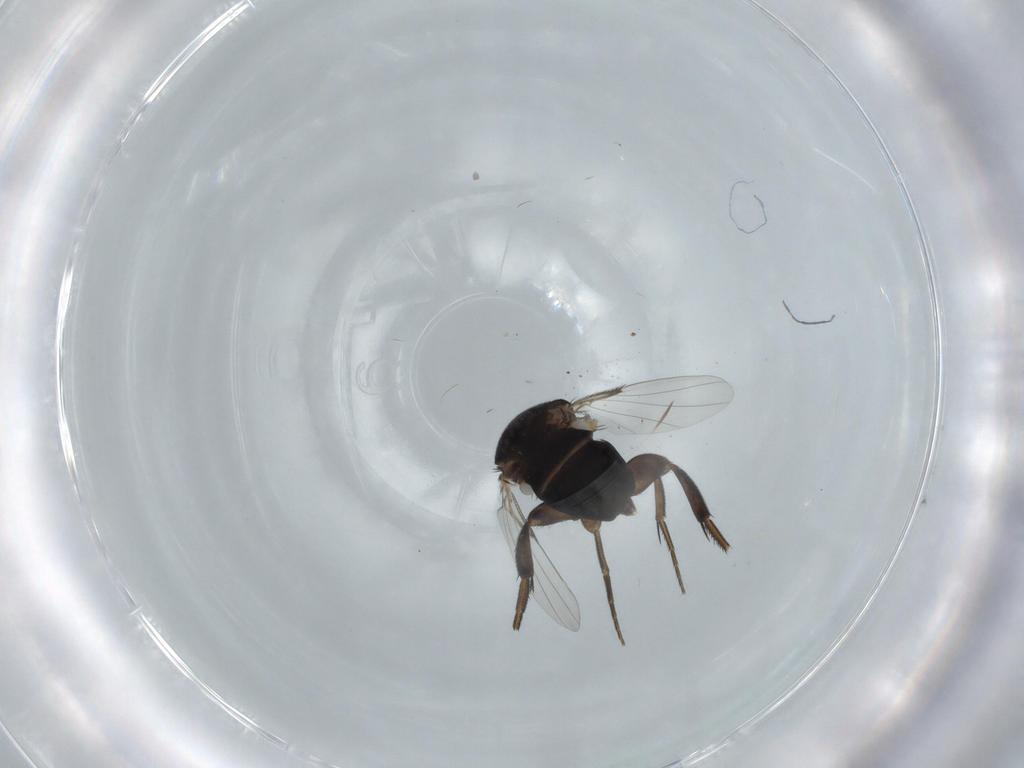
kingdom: Animalia
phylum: Arthropoda
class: Insecta
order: Diptera
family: Phoridae
